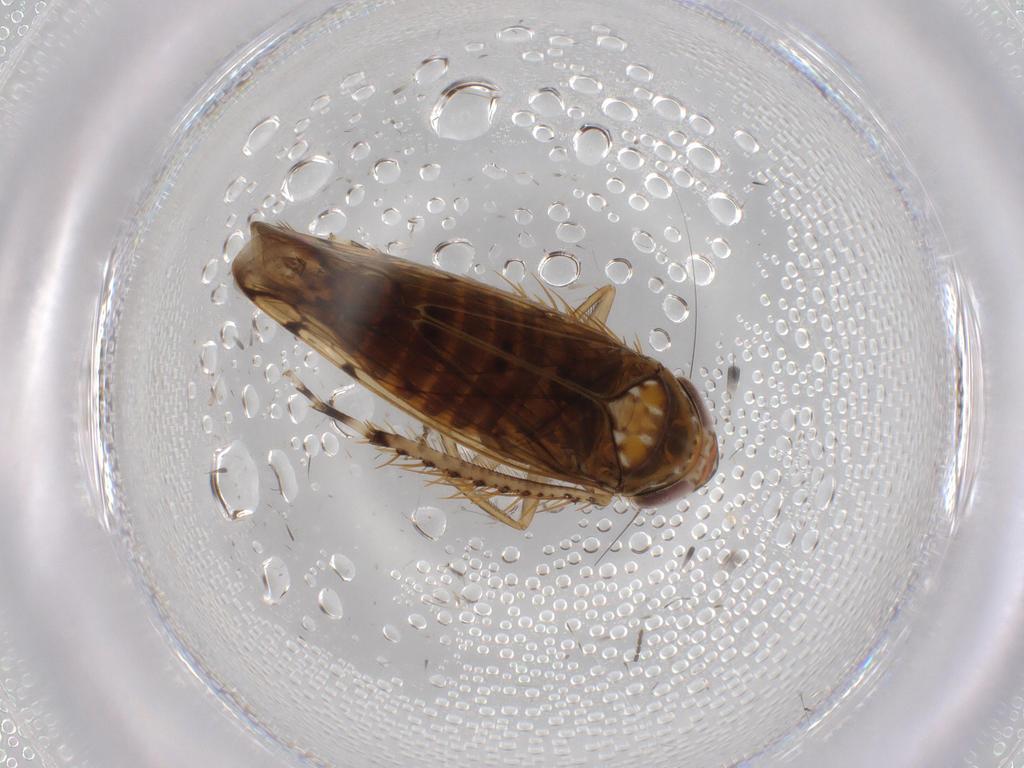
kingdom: Animalia
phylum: Arthropoda
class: Insecta
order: Hemiptera
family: Cicadellidae
